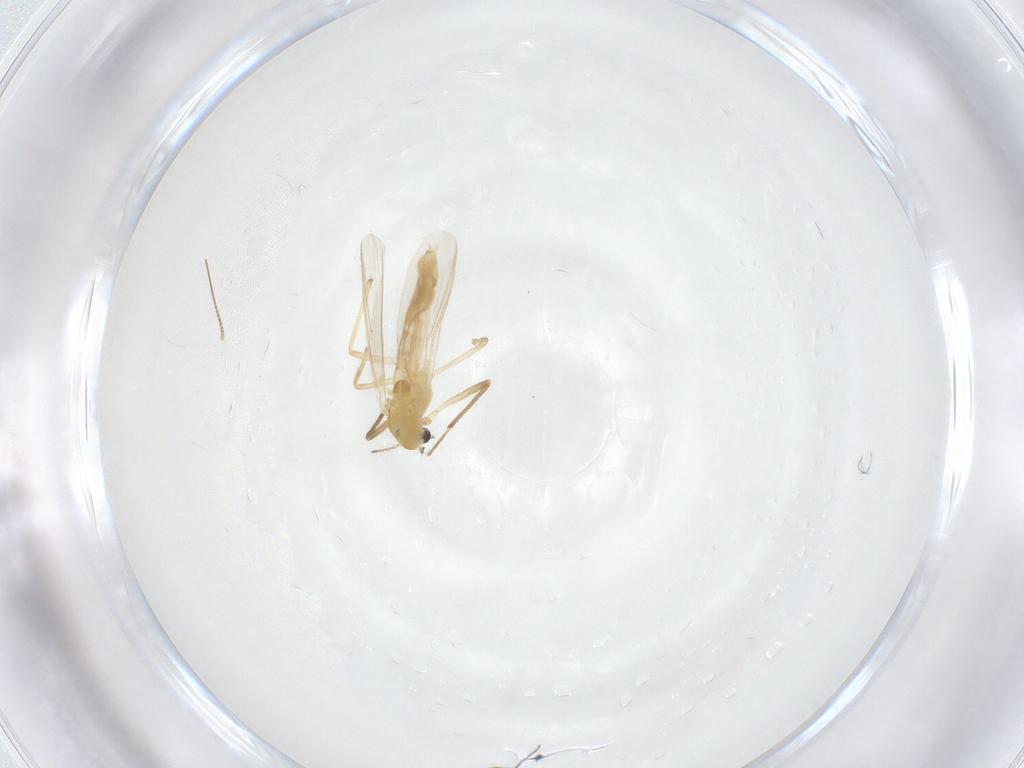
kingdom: Animalia
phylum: Arthropoda
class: Insecta
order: Diptera
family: Chironomidae
